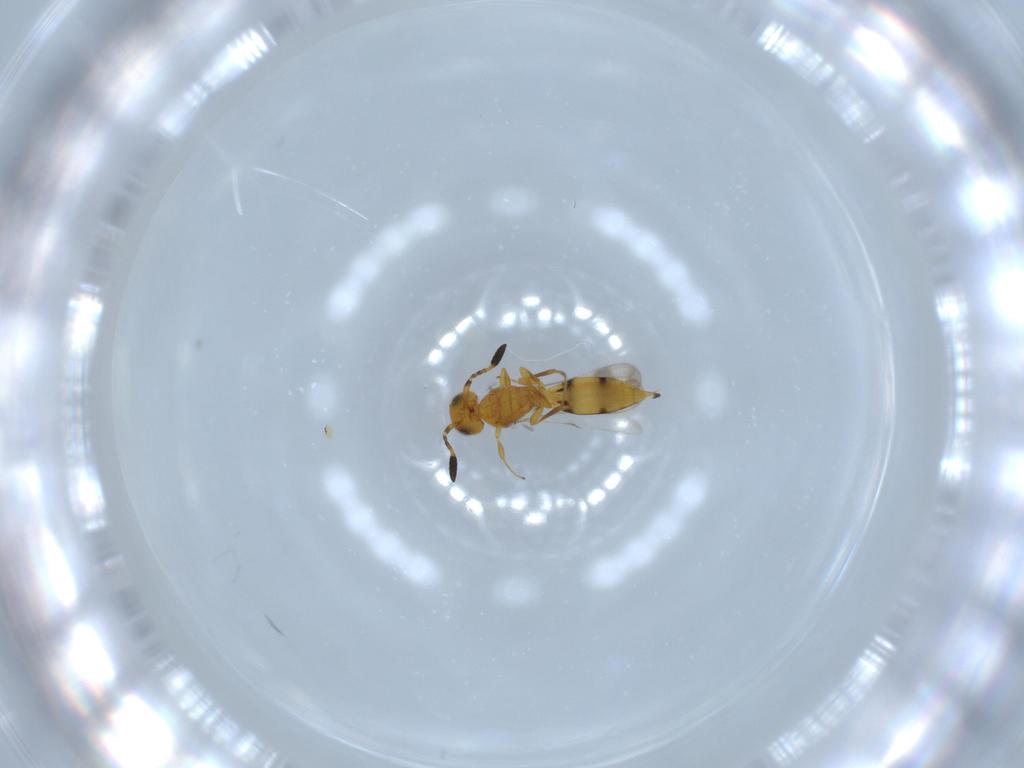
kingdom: Animalia
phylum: Arthropoda
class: Insecta
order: Hymenoptera
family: Scelionidae
